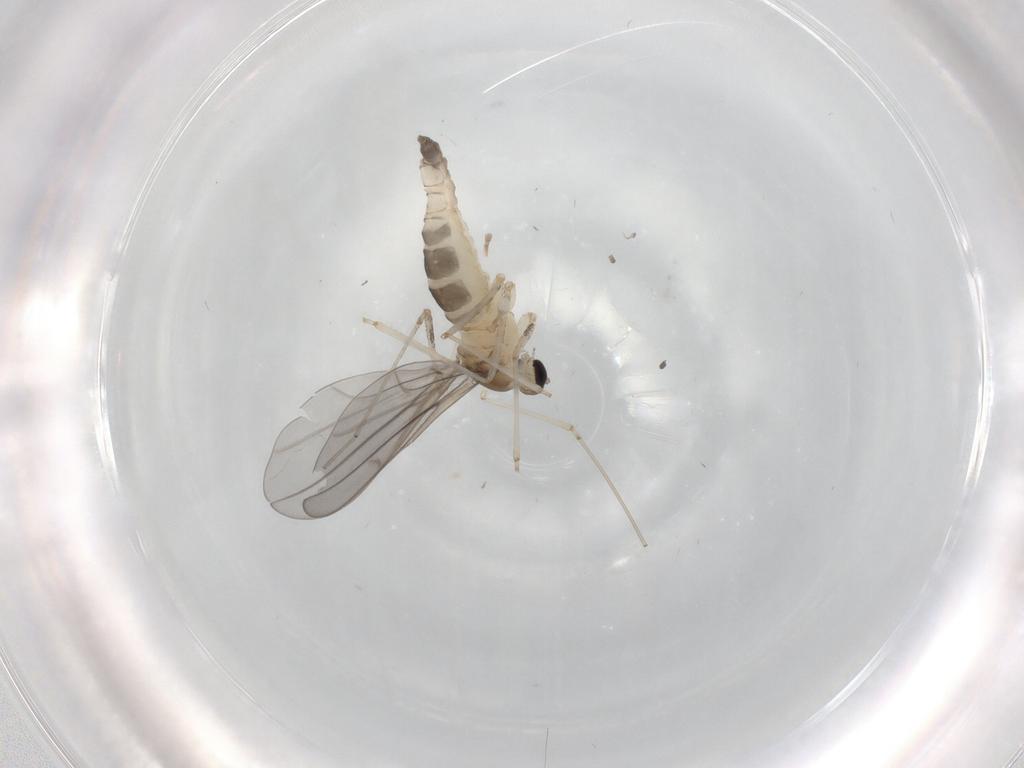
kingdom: Animalia
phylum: Arthropoda
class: Insecta
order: Diptera
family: Cecidomyiidae
